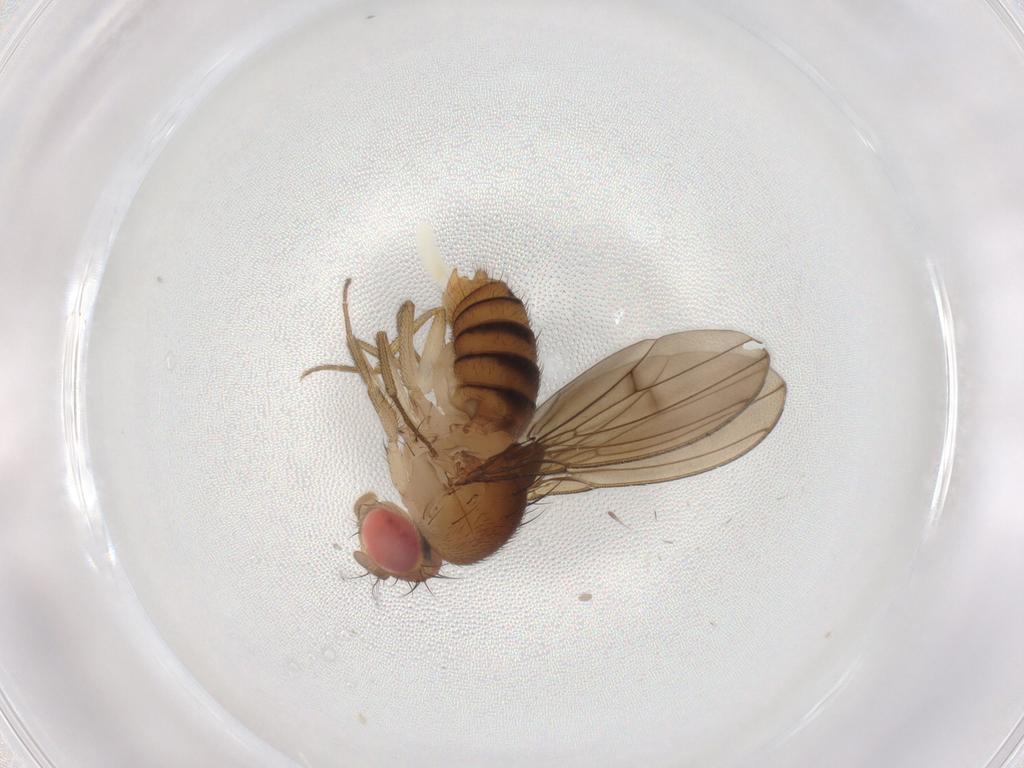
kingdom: Animalia
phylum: Arthropoda
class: Insecta
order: Diptera
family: Drosophilidae
